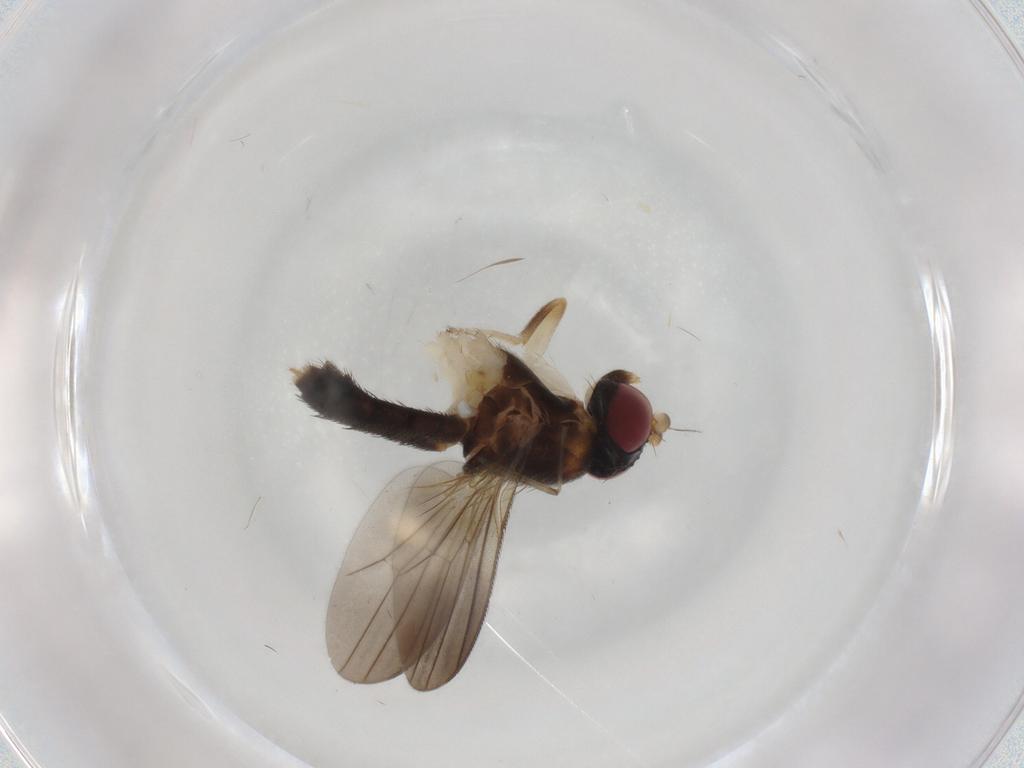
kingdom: Animalia
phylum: Arthropoda
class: Insecta
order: Diptera
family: Clusiidae
